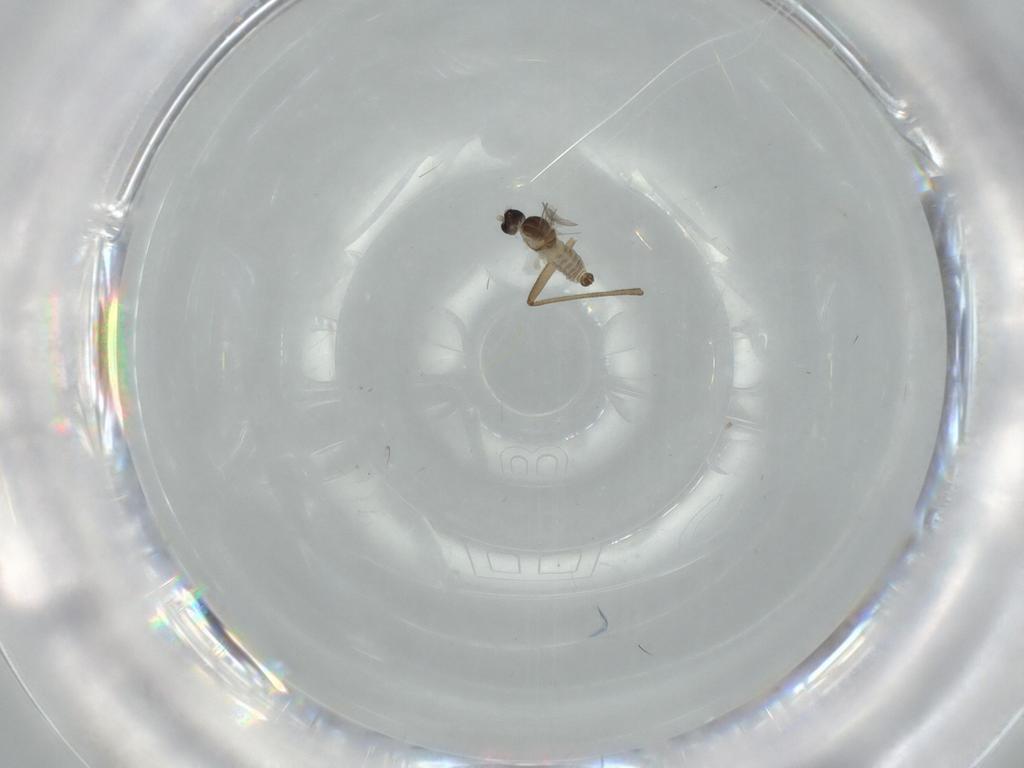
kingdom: Animalia
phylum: Arthropoda
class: Insecta
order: Diptera
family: Cecidomyiidae
